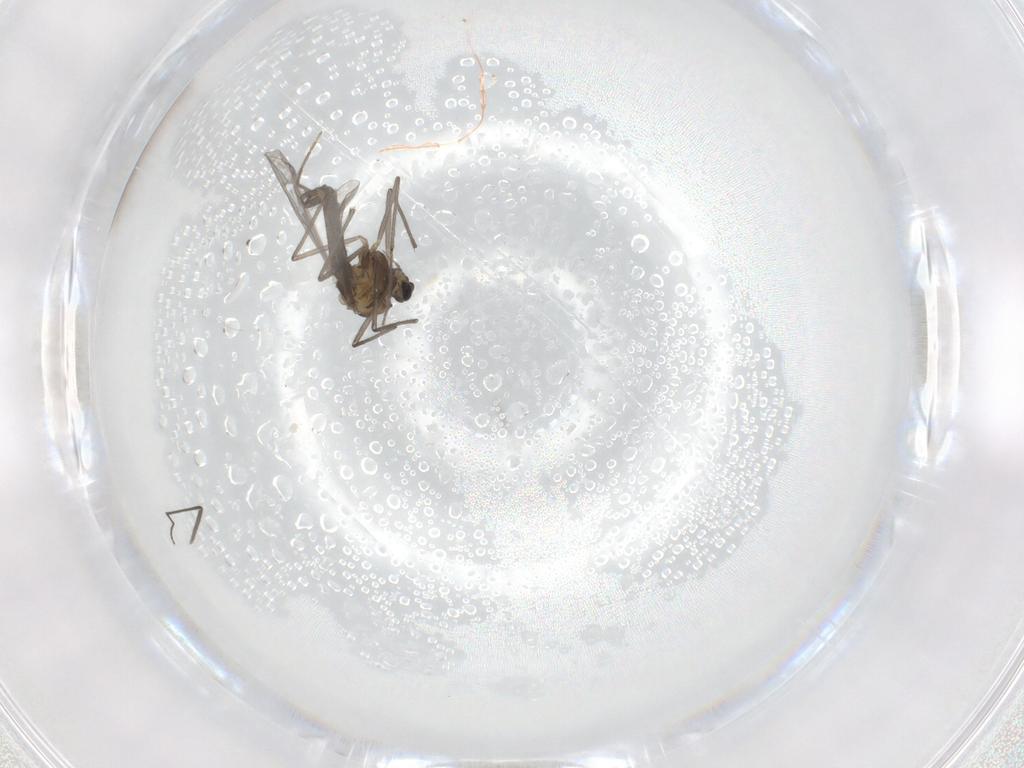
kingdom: Animalia
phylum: Arthropoda
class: Insecta
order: Diptera
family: Chironomidae
